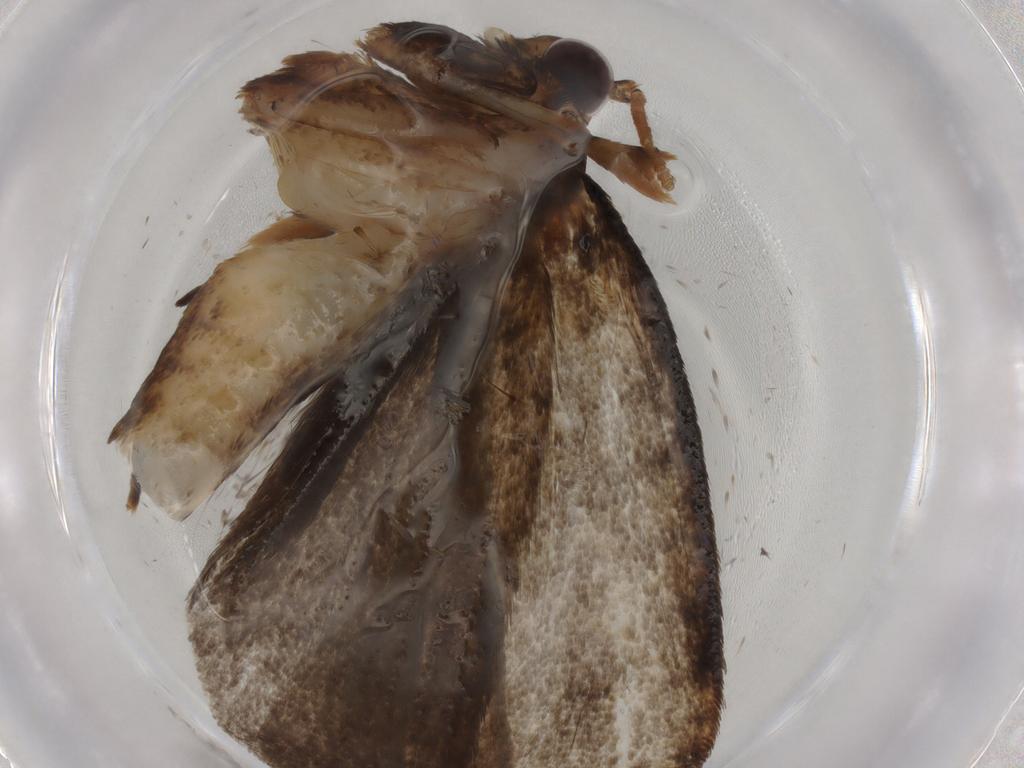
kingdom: Animalia
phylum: Arthropoda
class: Insecta
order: Lepidoptera
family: Tineidae
